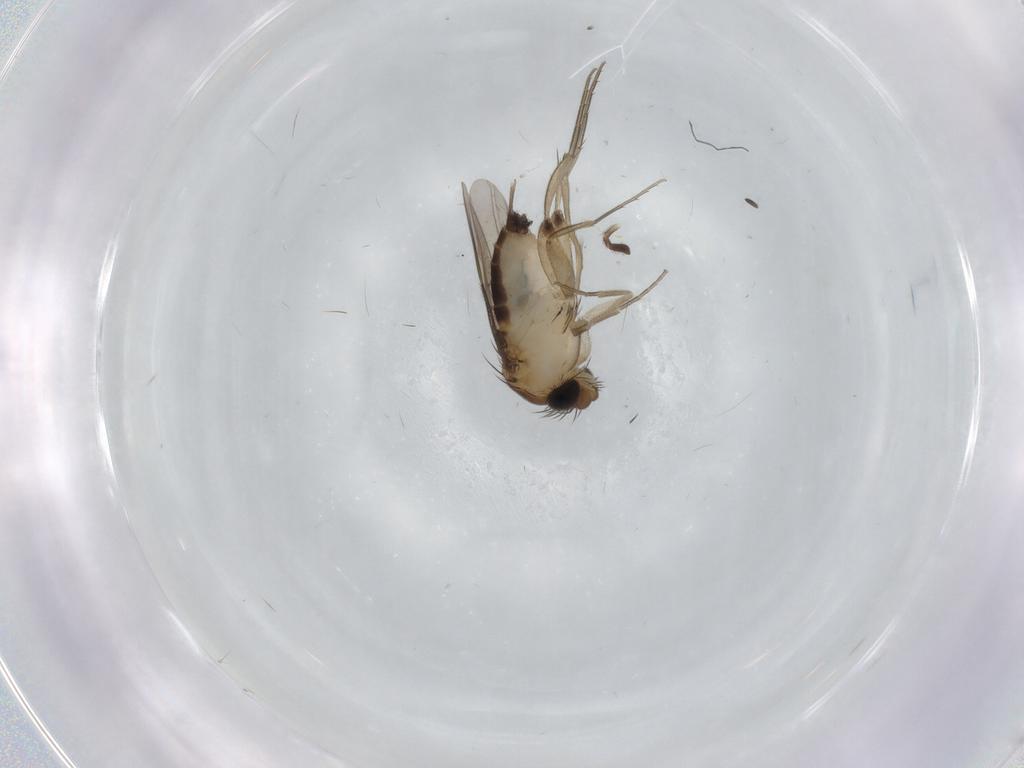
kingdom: Animalia
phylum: Arthropoda
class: Insecta
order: Diptera
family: Phoridae
